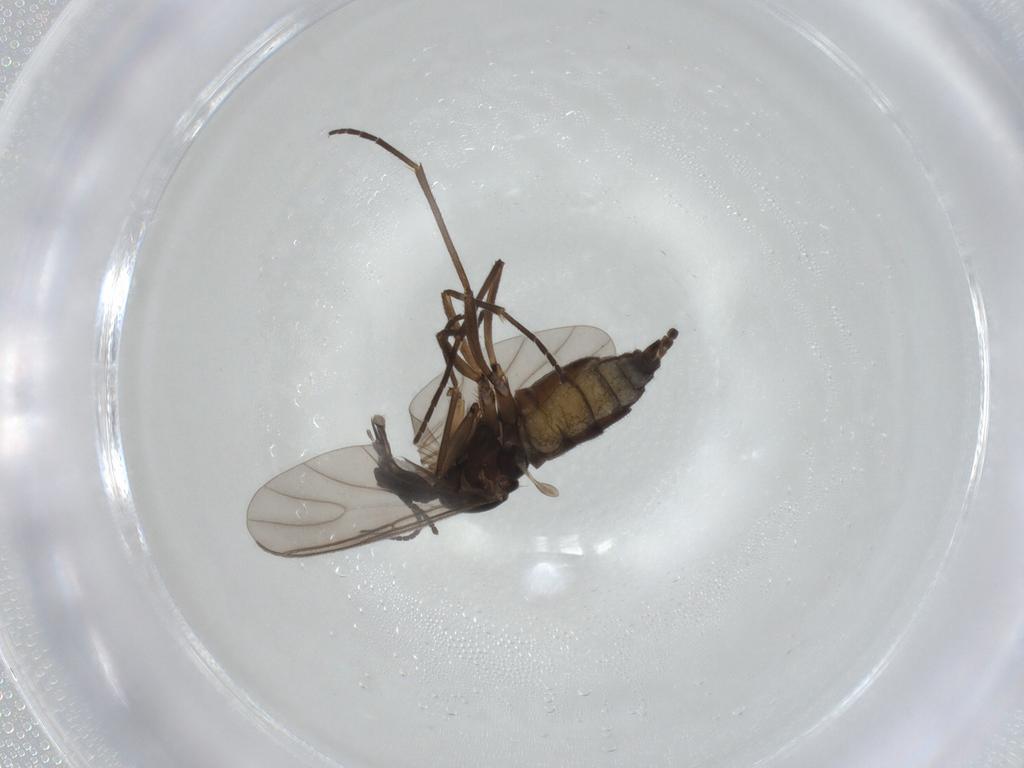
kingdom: Animalia
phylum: Arthropoda
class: Insecta
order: Diptera
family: Sciaridae
